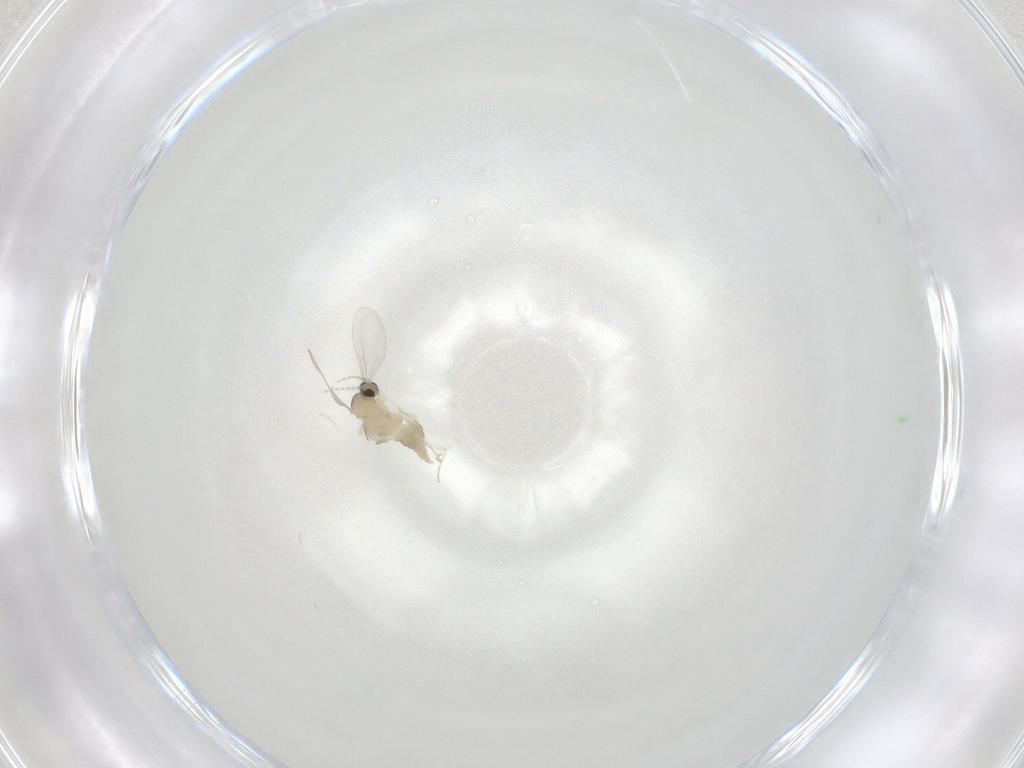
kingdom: Animalia
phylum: Arthropoda
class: Insecta
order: Diptera
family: Cecidomyiidae
